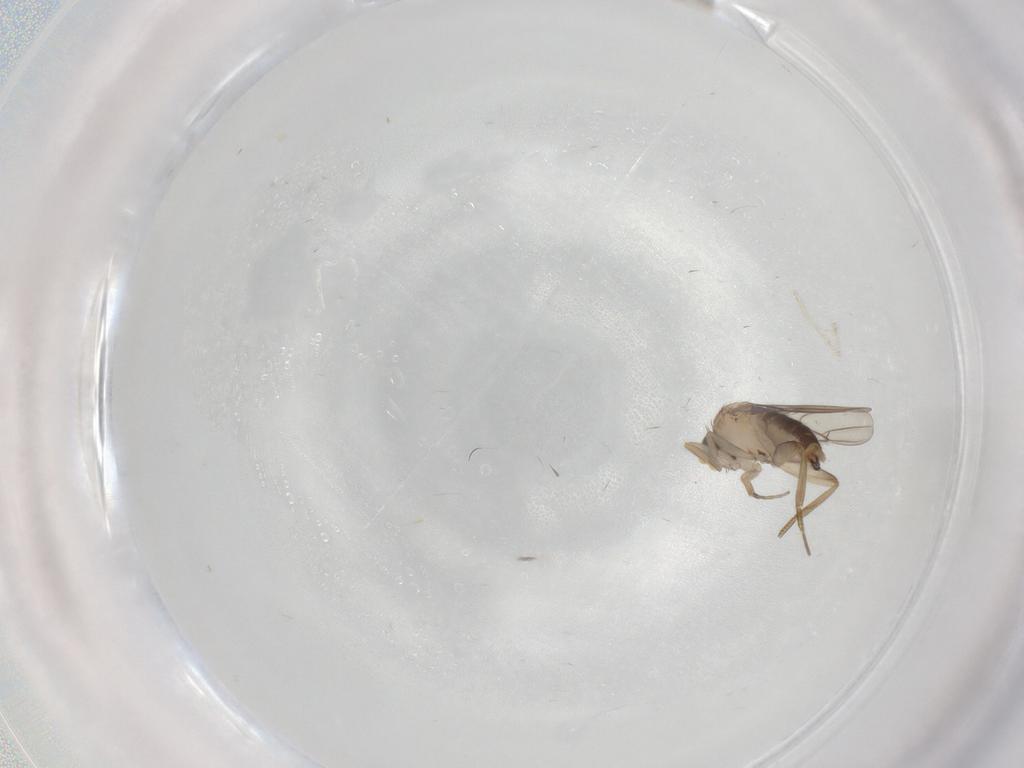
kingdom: Animalia
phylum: Arthropoda
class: Insecta
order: Diptera
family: Phoridae
